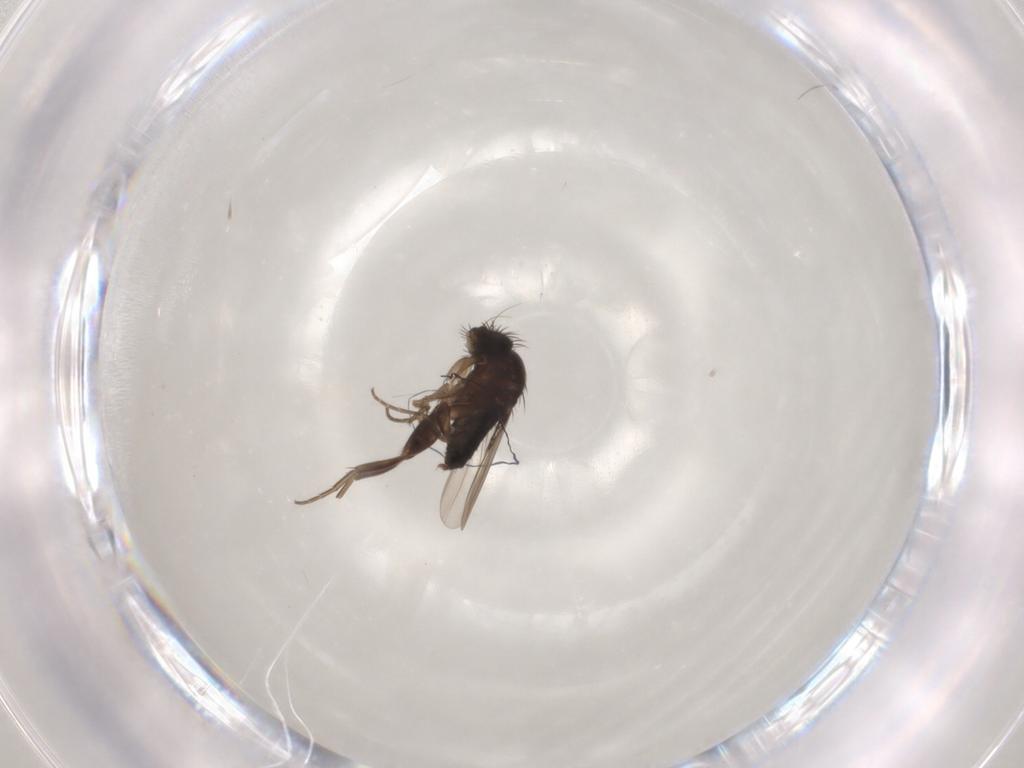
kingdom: Animalia
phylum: Arthropoda
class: Insecta
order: Diptera
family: Phoridae
